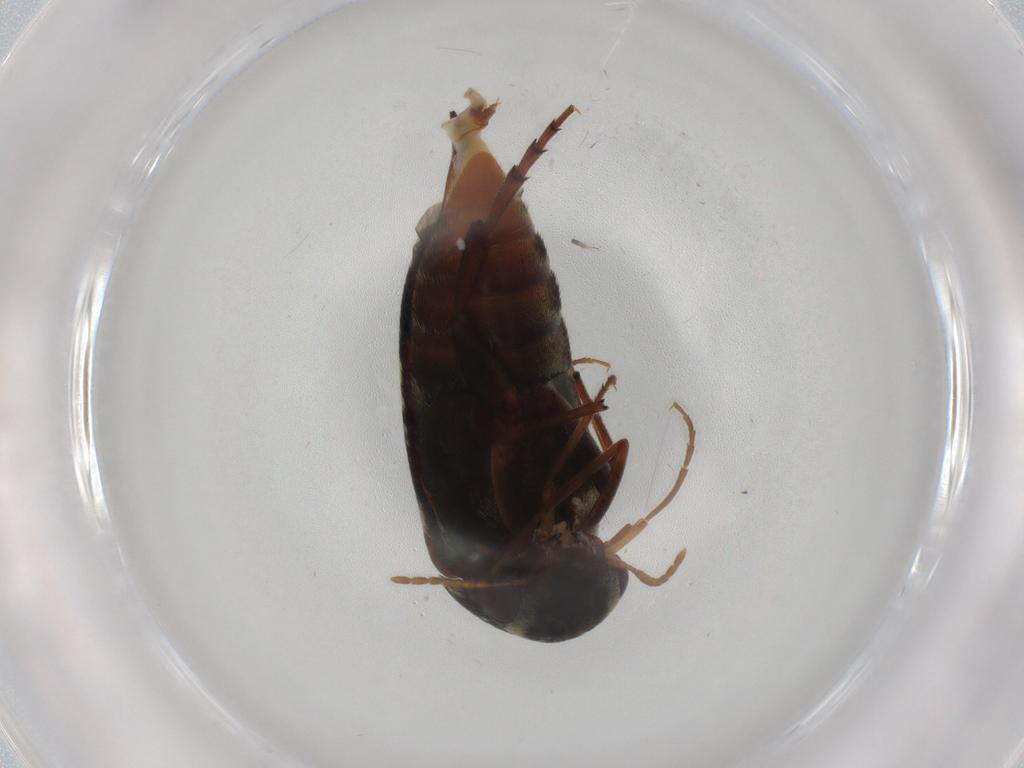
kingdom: Animalia
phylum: Arthropoda
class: Insecta
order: Coleoptera
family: Mordellidae
